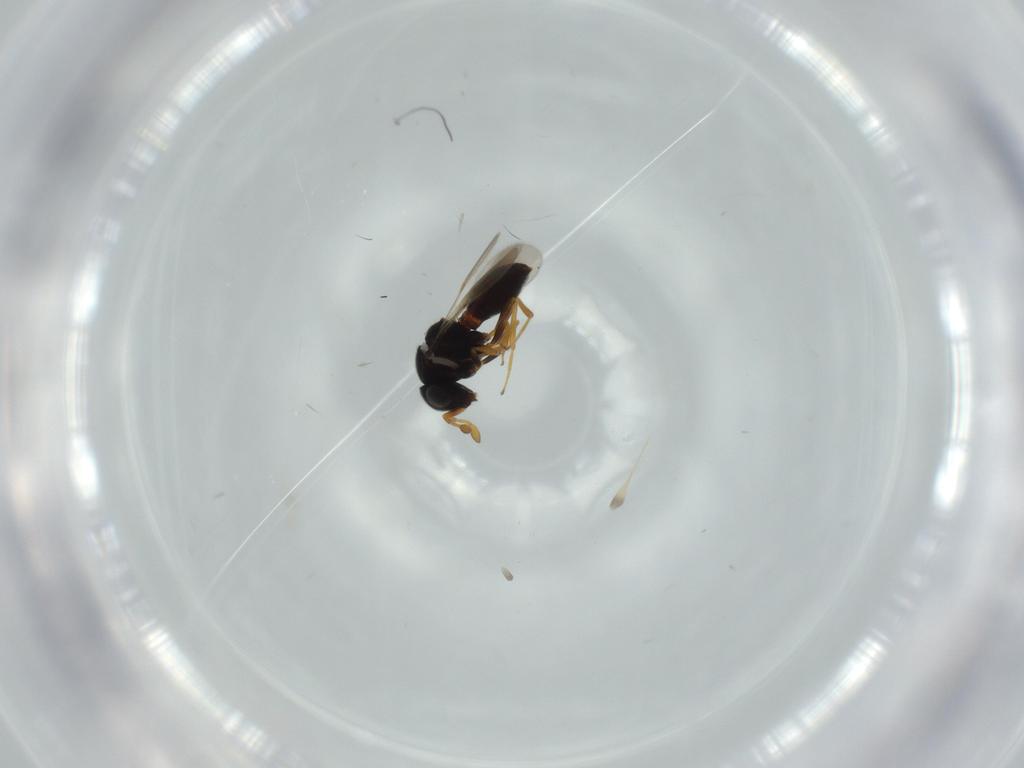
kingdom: Animalia
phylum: Arthropoda
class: Insecta
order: Hymenoptera
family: Scelionidae
